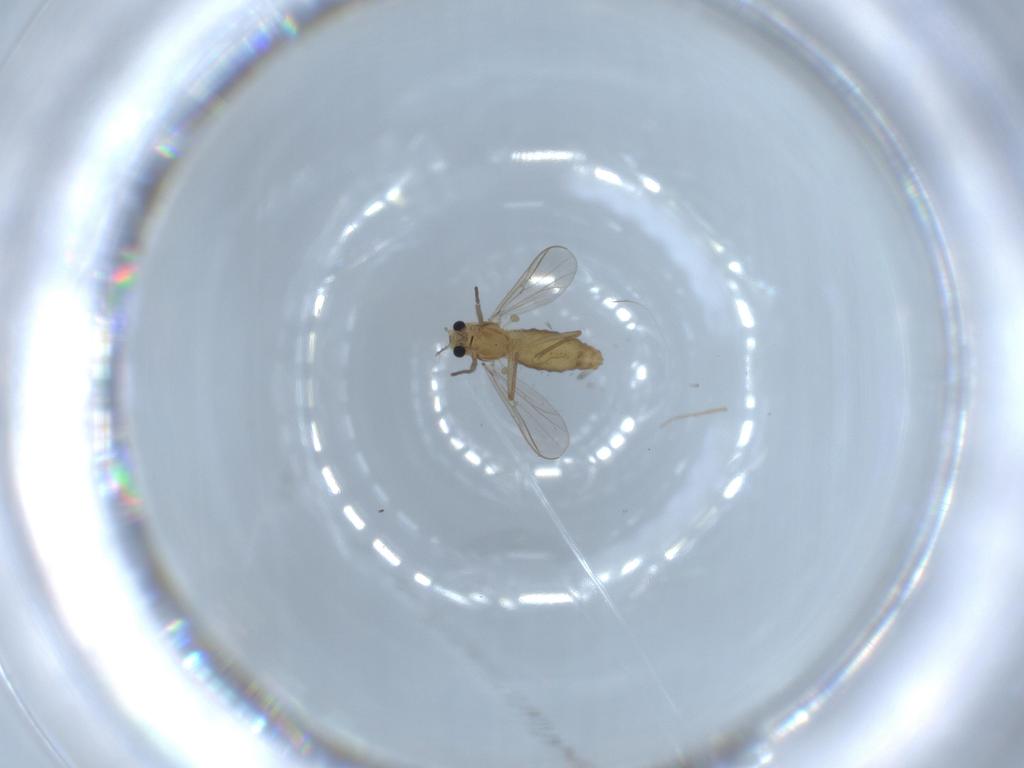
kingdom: Animalia
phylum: Arthropoda
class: Insecta
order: Diptera
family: Chironomidae
